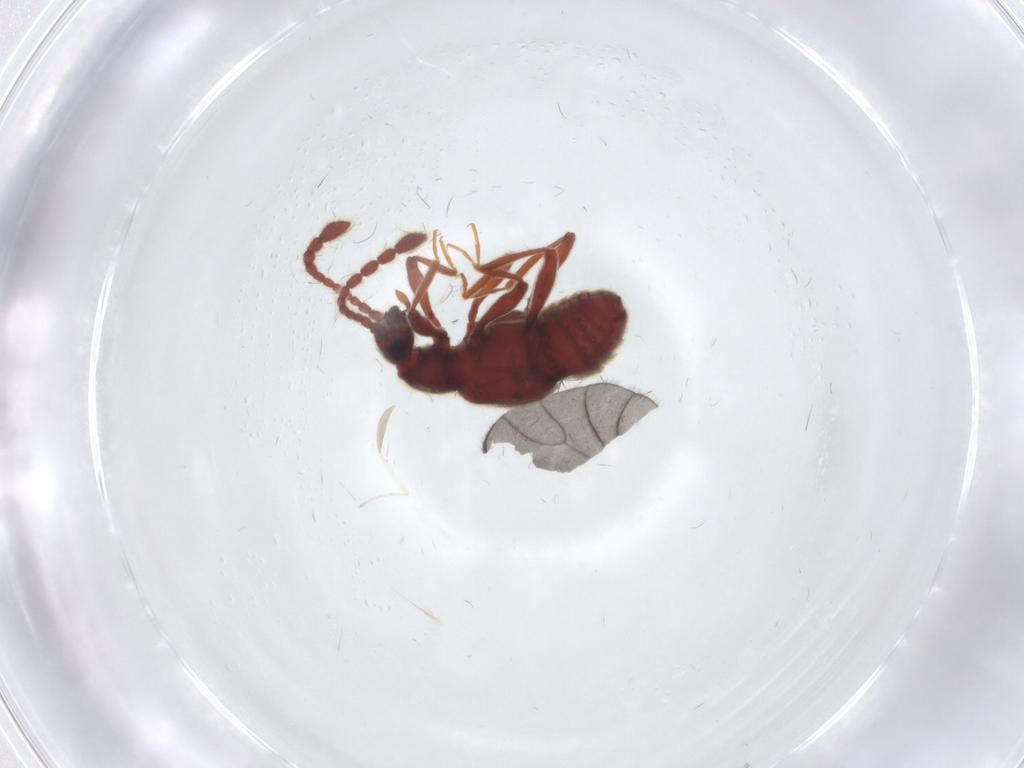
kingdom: Animalia
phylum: Arthropoda
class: Insecta
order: Coleoptera
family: Staphylinidae
